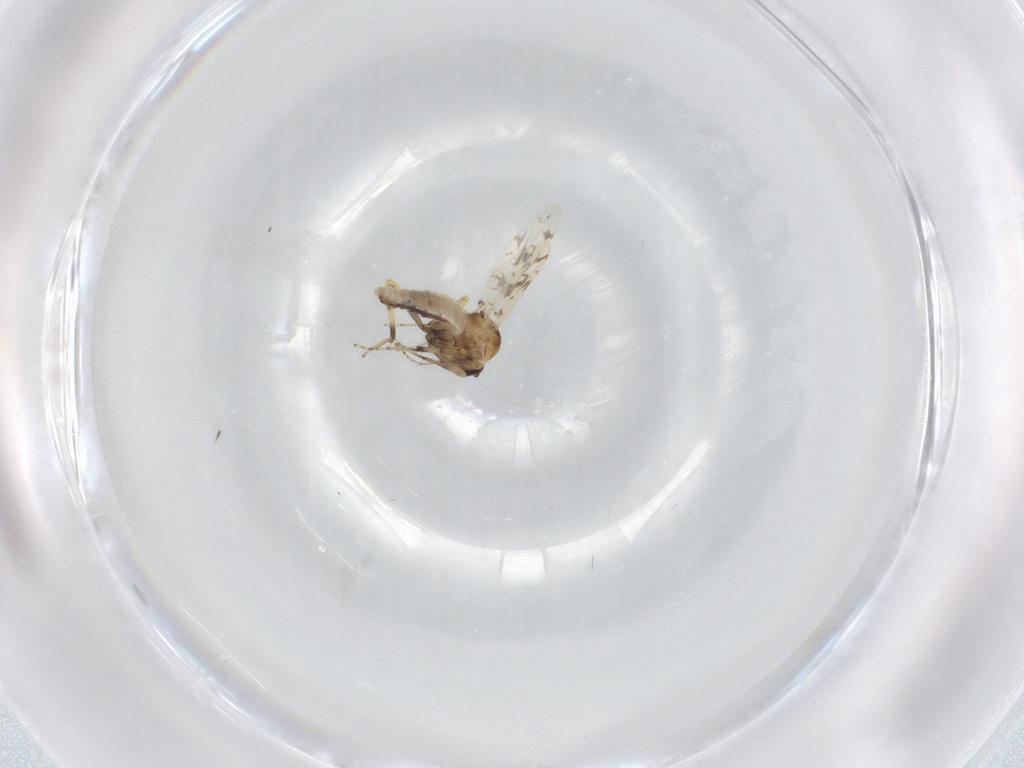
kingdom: Animalia
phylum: Arthropoda
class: Insecta
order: Diptera
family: Ceratopogonidae
